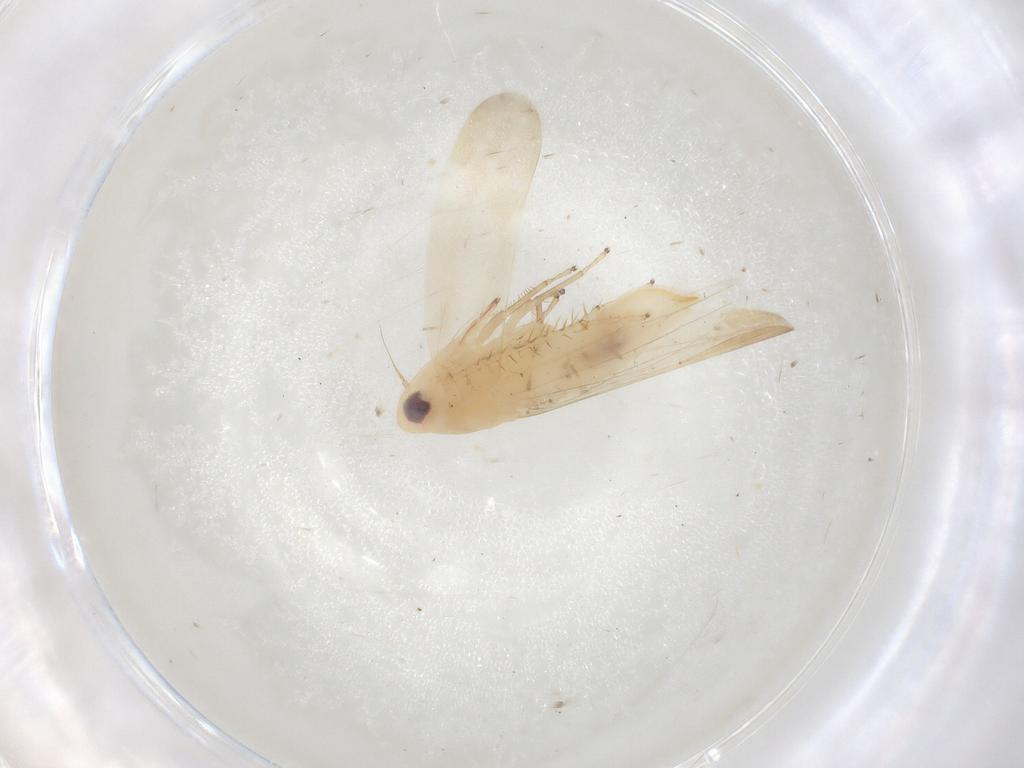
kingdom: Animalia
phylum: Arthropoda
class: Insecta
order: Hemiptera
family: Cicadellidae
